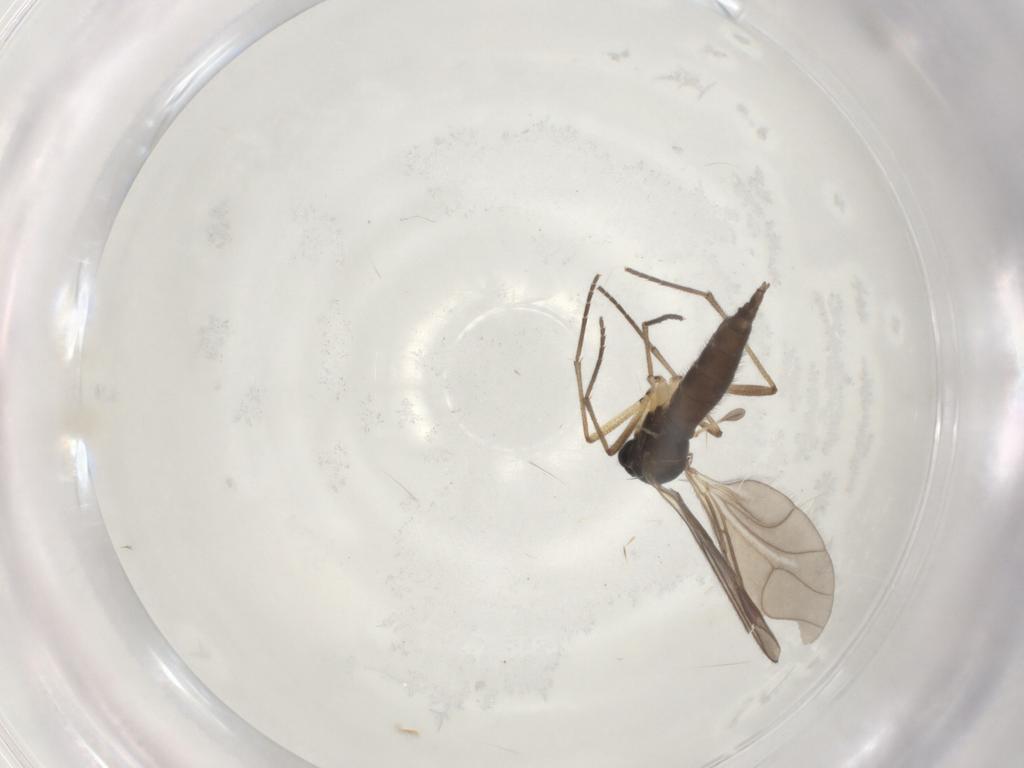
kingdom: Animalia
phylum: Arthropoda
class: Insecta
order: Diptera
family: Sciaridae
